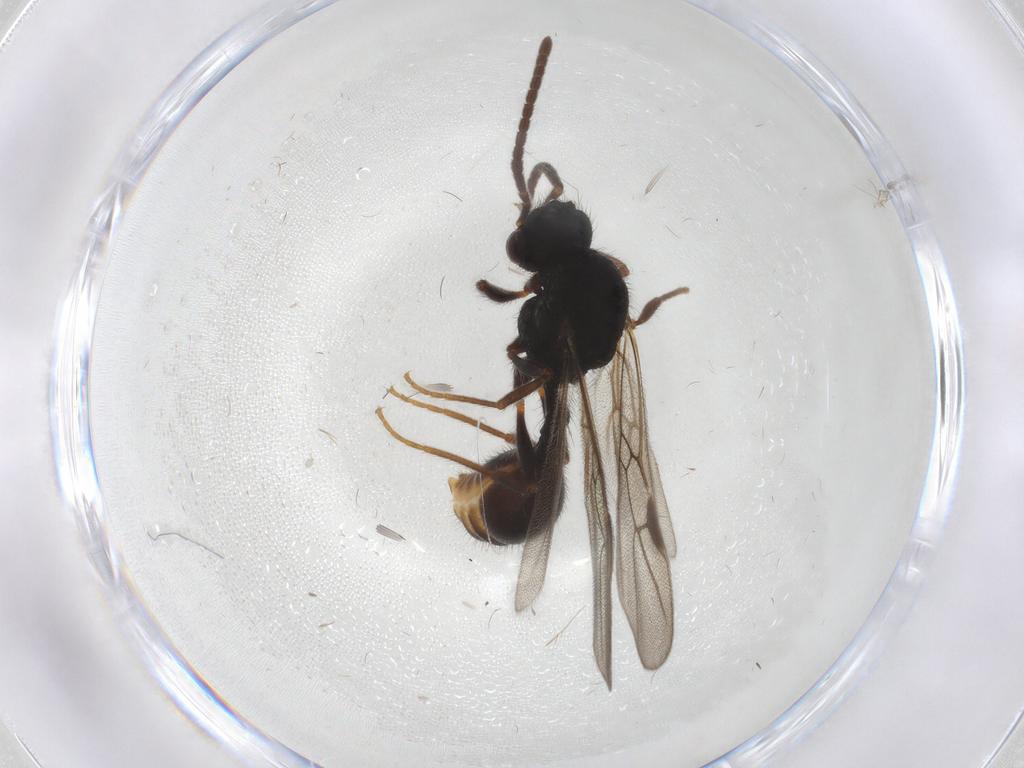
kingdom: Animalia
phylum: Arthropoda
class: Insecta
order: Hymenoptera
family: Formicidae
